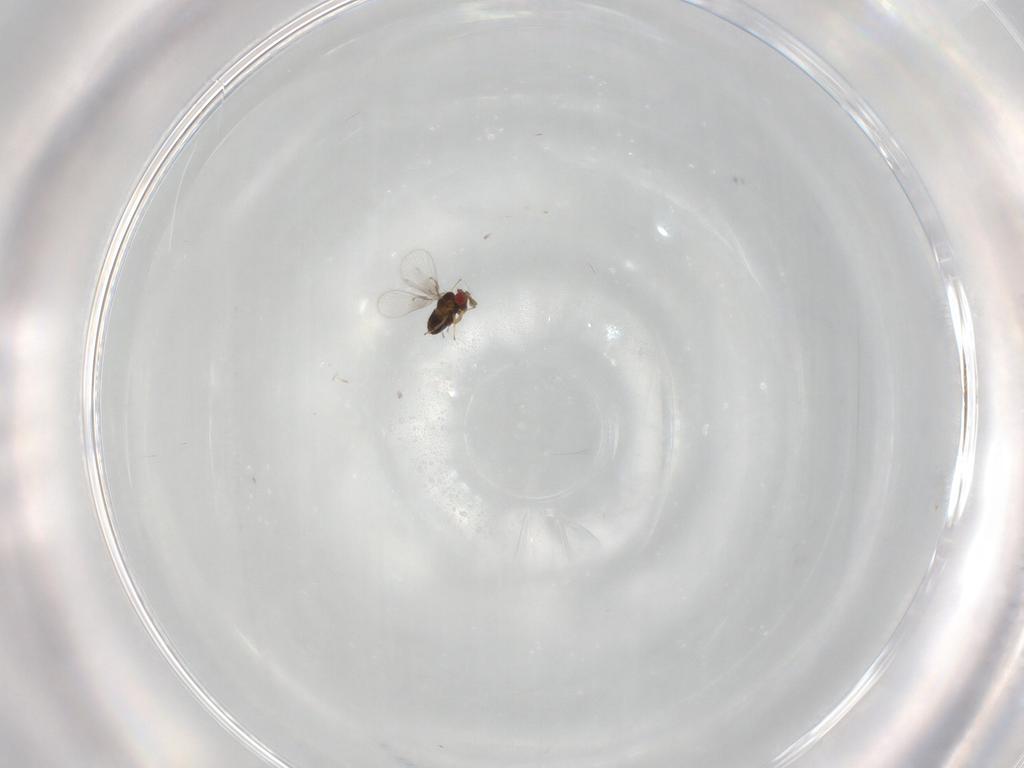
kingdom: Animalia
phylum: Arthropoda
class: Insecta
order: Hymenoptera
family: Trichogrammatidae
